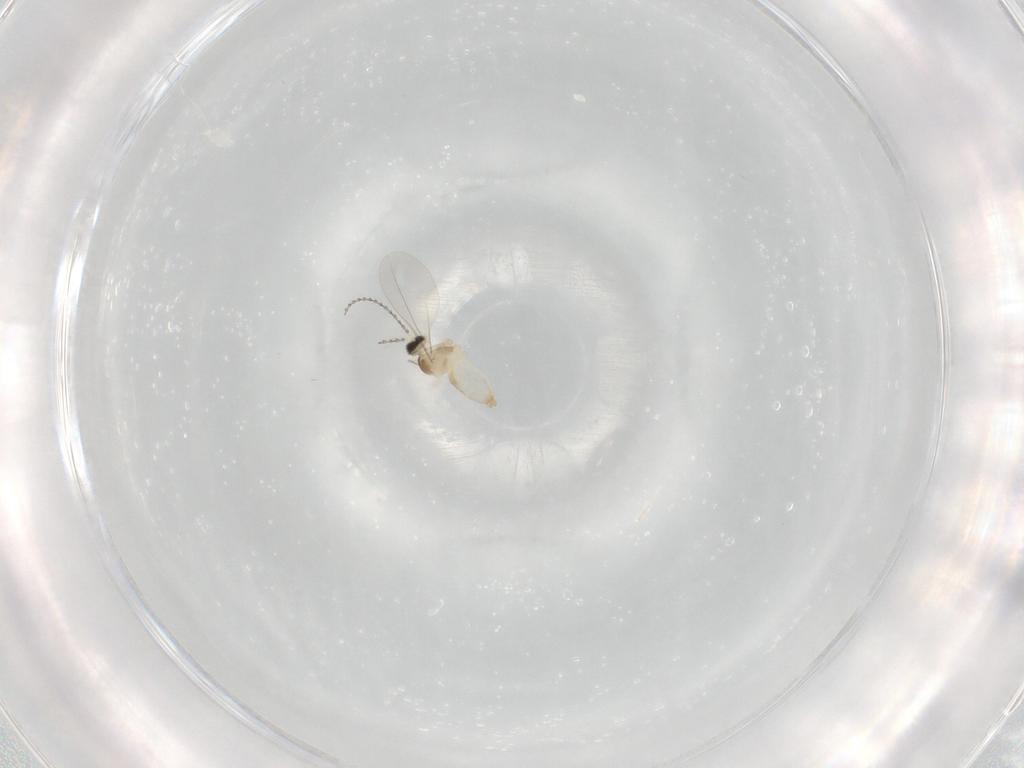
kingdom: Animalia
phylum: Arthropoda
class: Insecta
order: Diptera
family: Cecidomyiidae
